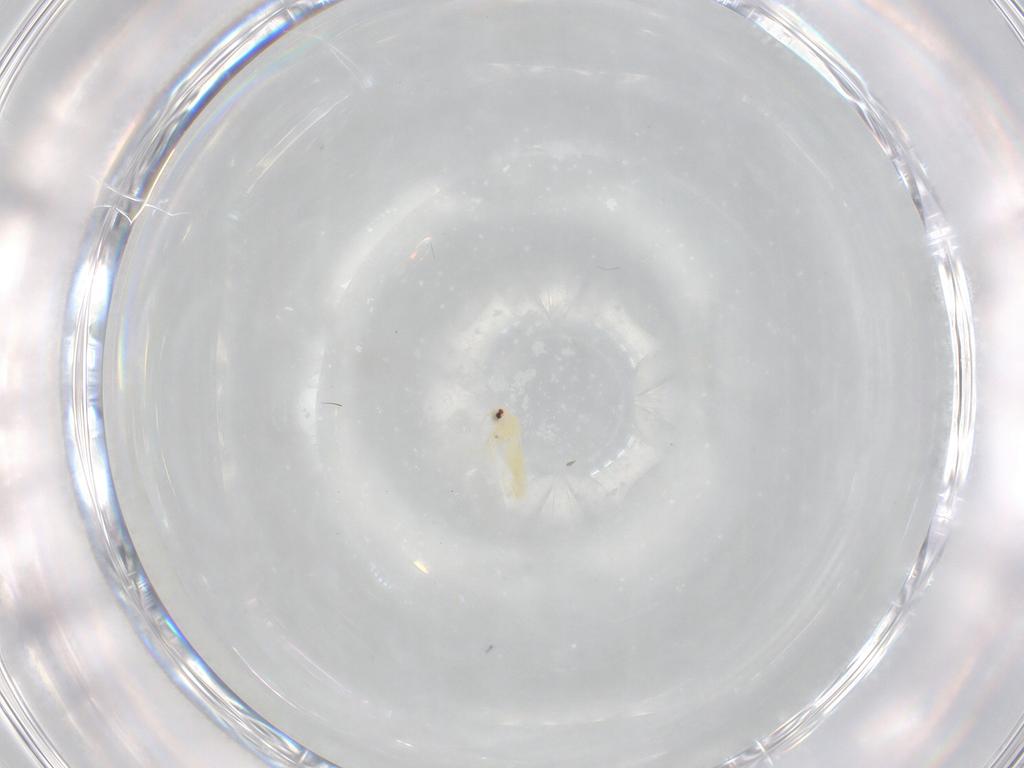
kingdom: Animalia
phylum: Arthropoda
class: Insecta
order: Hemiptera
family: Aleyrodidae
